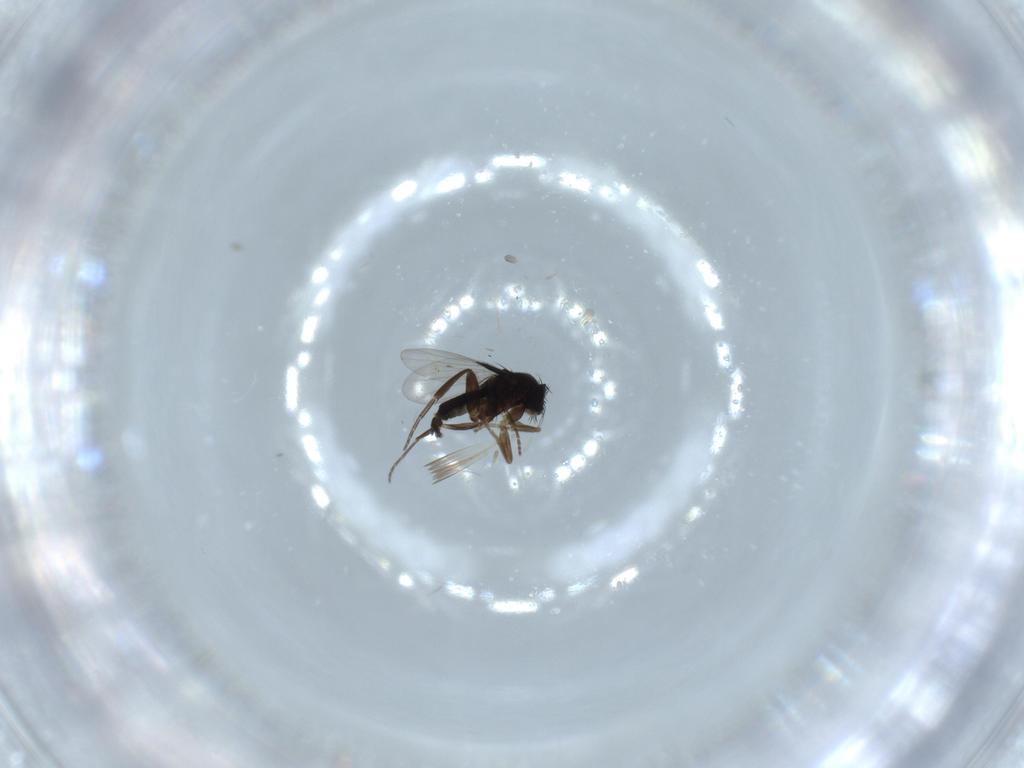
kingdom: Animalia
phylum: Arthropoda
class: Insecta
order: Diptera
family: Phoridae
